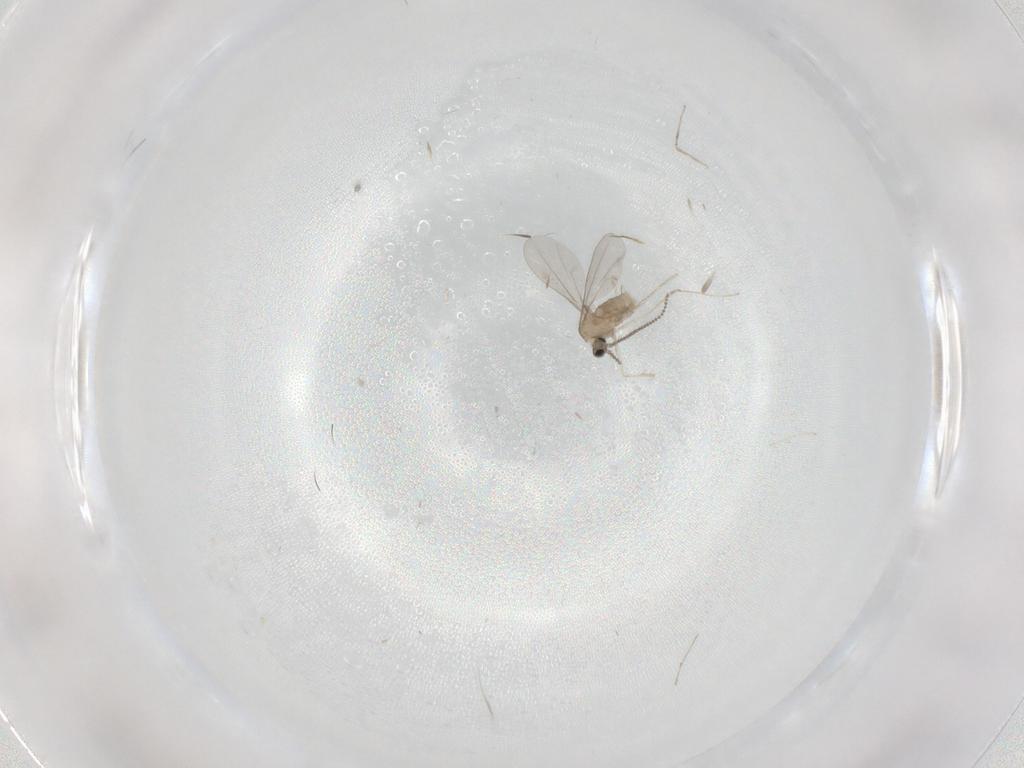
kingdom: Animalia
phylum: Arthropoda
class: Insecta
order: Diptera
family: Cecidomyiidae
